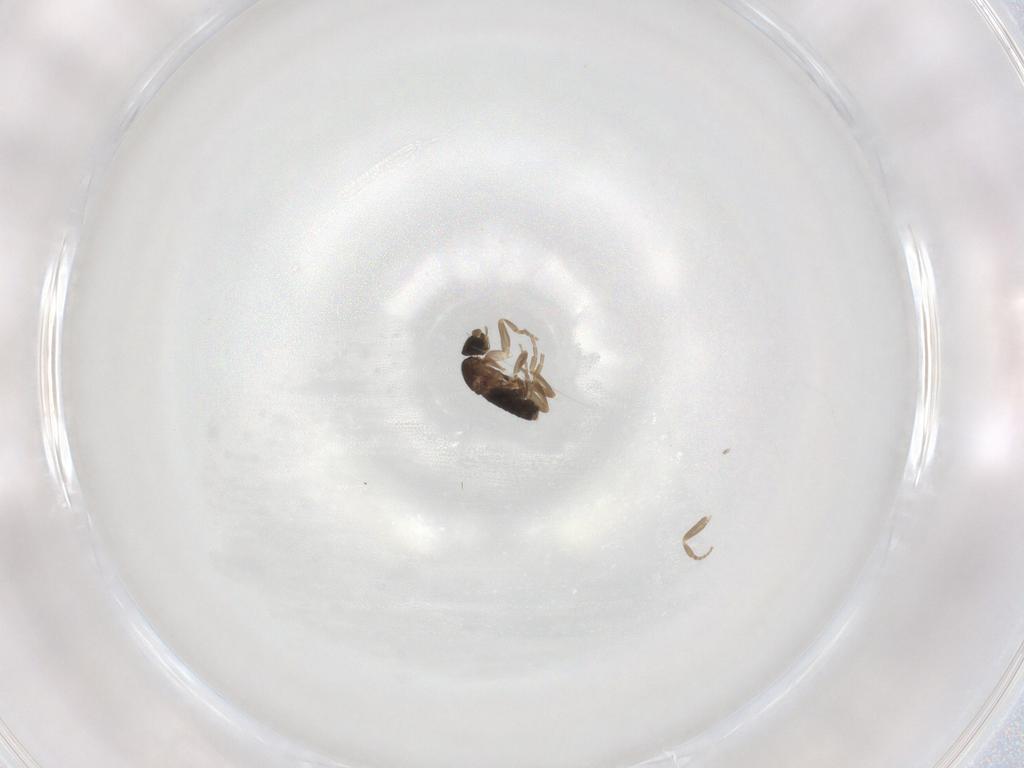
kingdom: Animalia
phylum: Arthropoda
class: Insecta
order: Diptera
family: Phoridae
